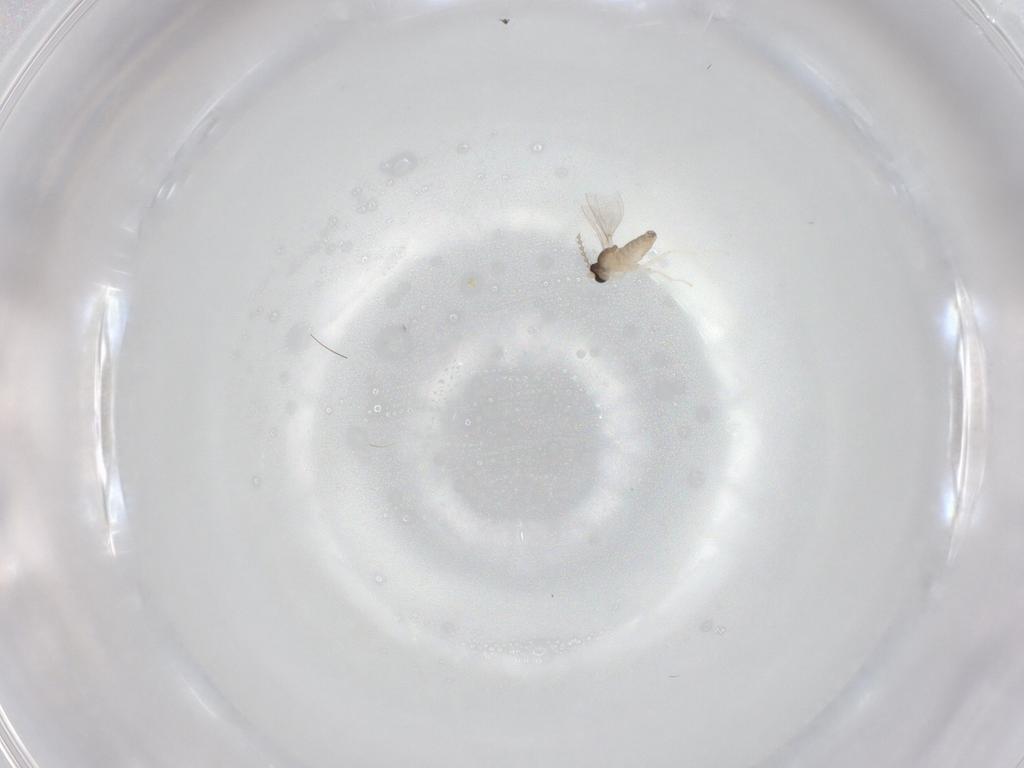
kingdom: Animalia
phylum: Arthropoda
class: Insecta
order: Diptera
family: Cecidomyiidae
